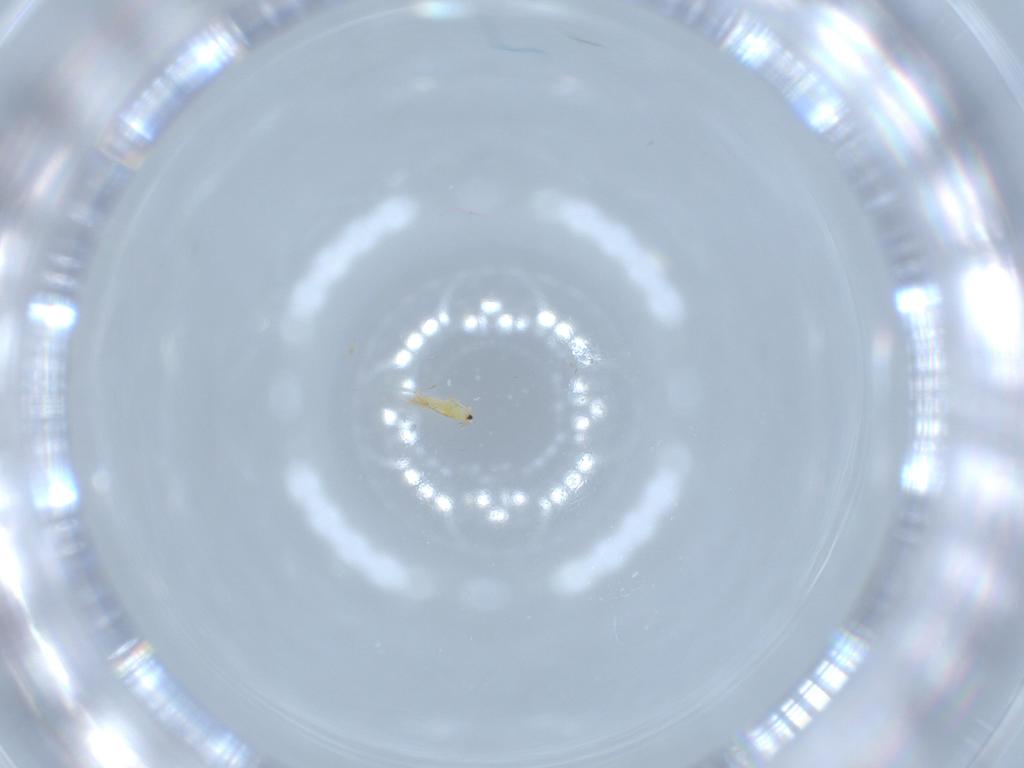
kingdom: Animalia
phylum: Arthropoda
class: Insecta
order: Thysanoptera
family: Thripidae
